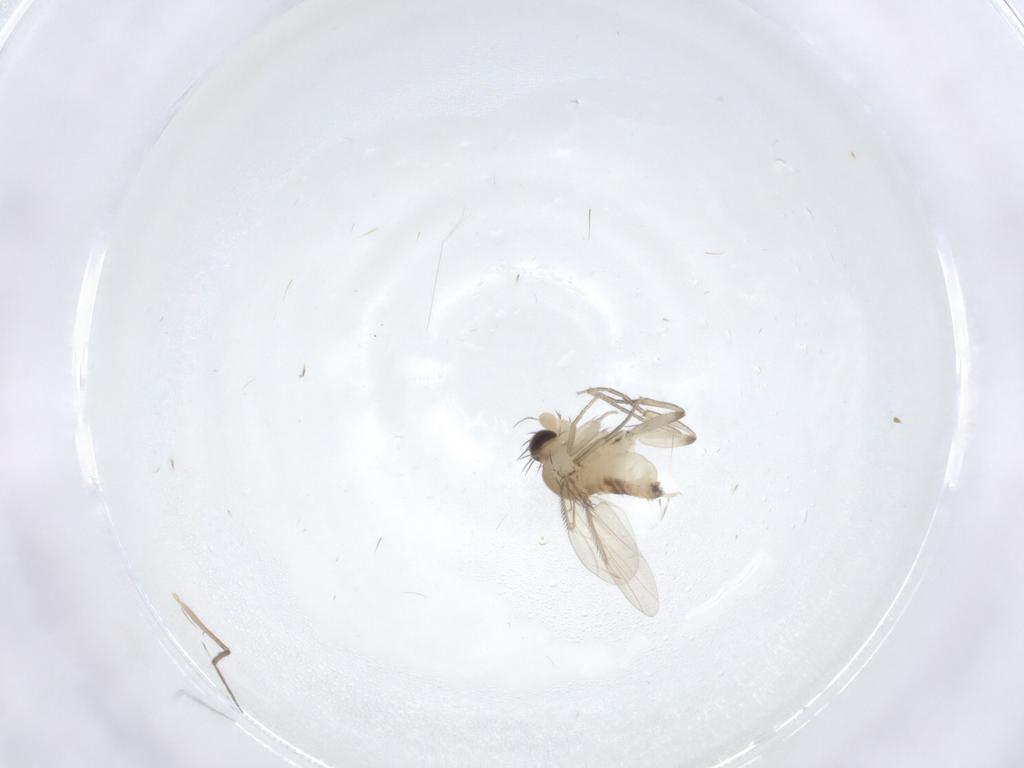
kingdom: Animalia
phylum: Arthropoda
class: Insecta
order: Diptera
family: Phoridae
